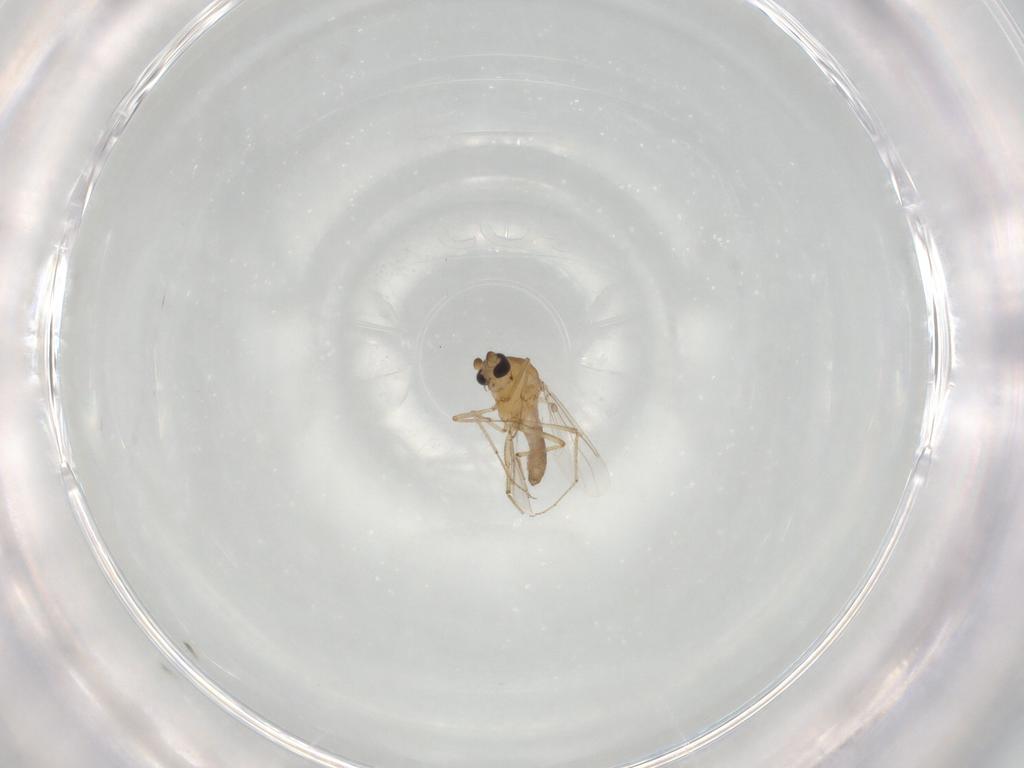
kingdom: Animalia
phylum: Arthropoda
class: Insecta
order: Diptera
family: Ceratopogonidae
